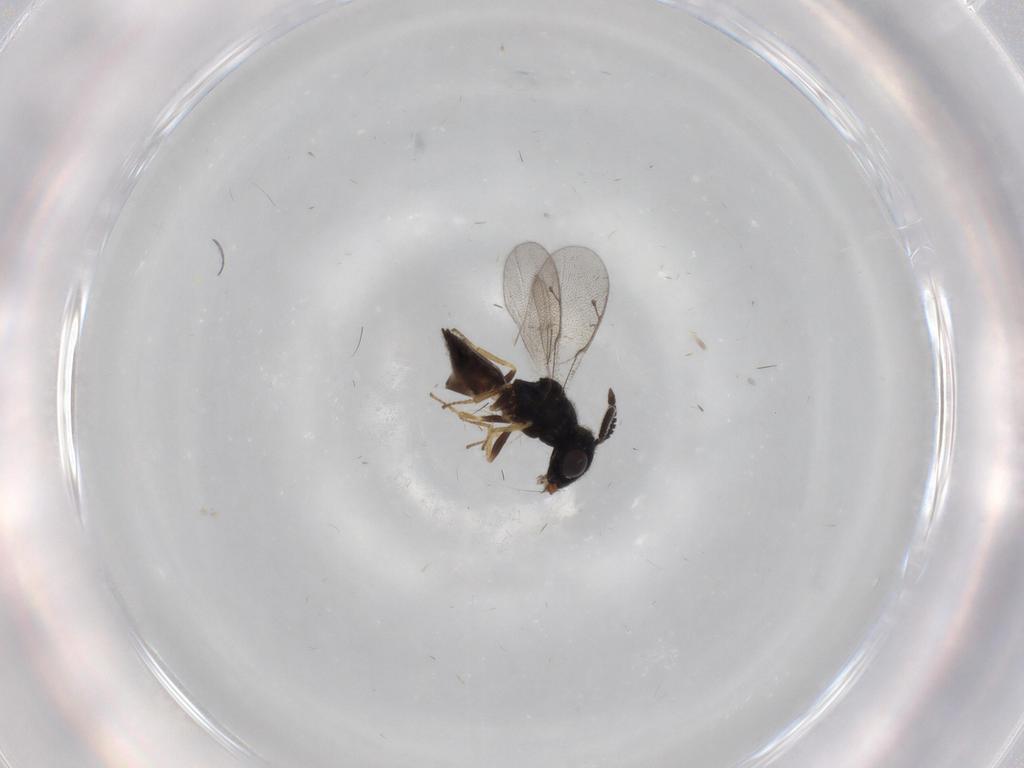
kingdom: Animalia
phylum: Arthropoda
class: Insecta
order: Hymenoptera
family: Pteromalidae
